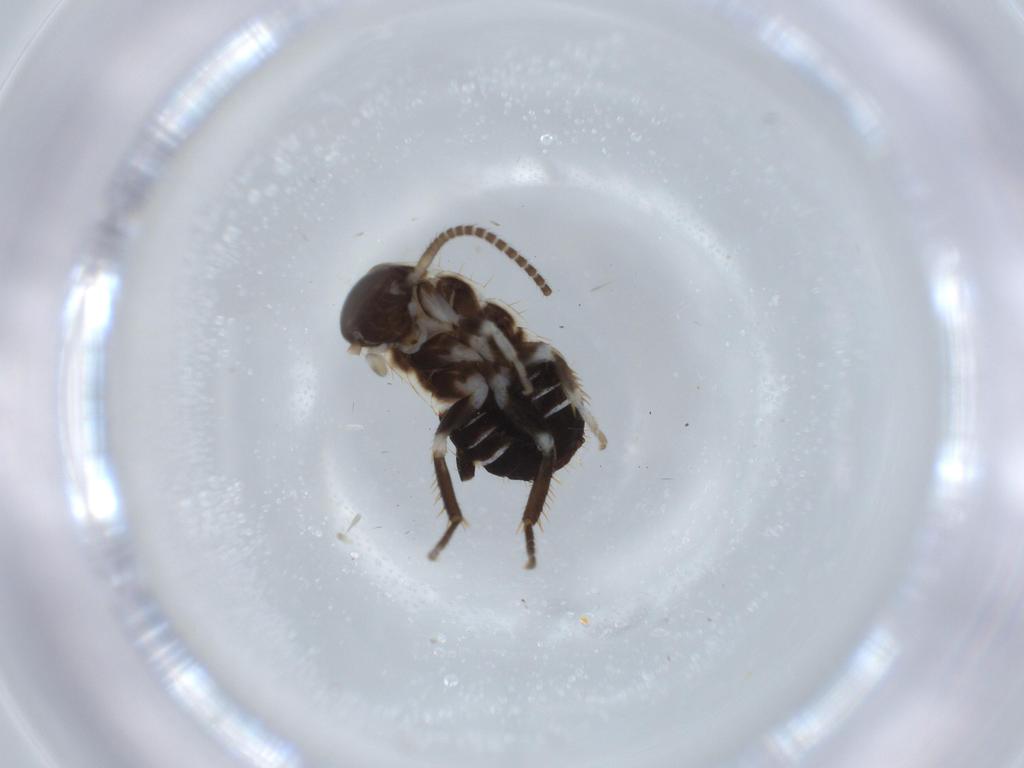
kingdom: Animalia
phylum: Arthropoda
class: Insecta
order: Blattodea
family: Ectobiidae
